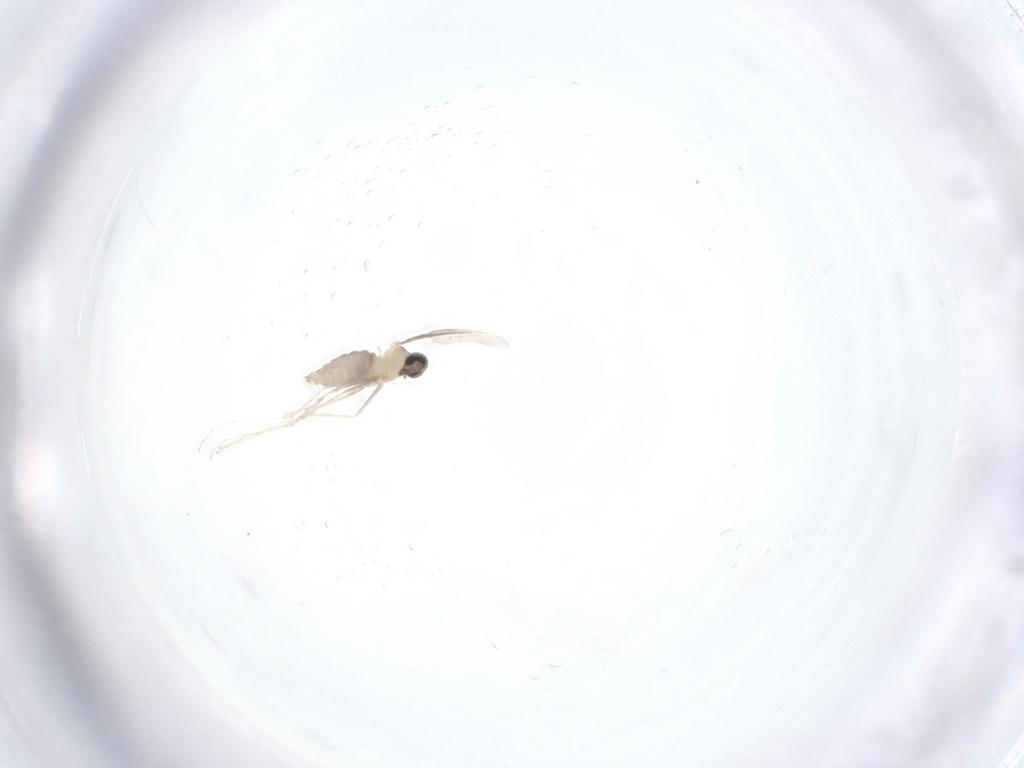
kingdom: Animalia
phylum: Arthropoda
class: Insecta
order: Diptera
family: Cecidomyiidae
